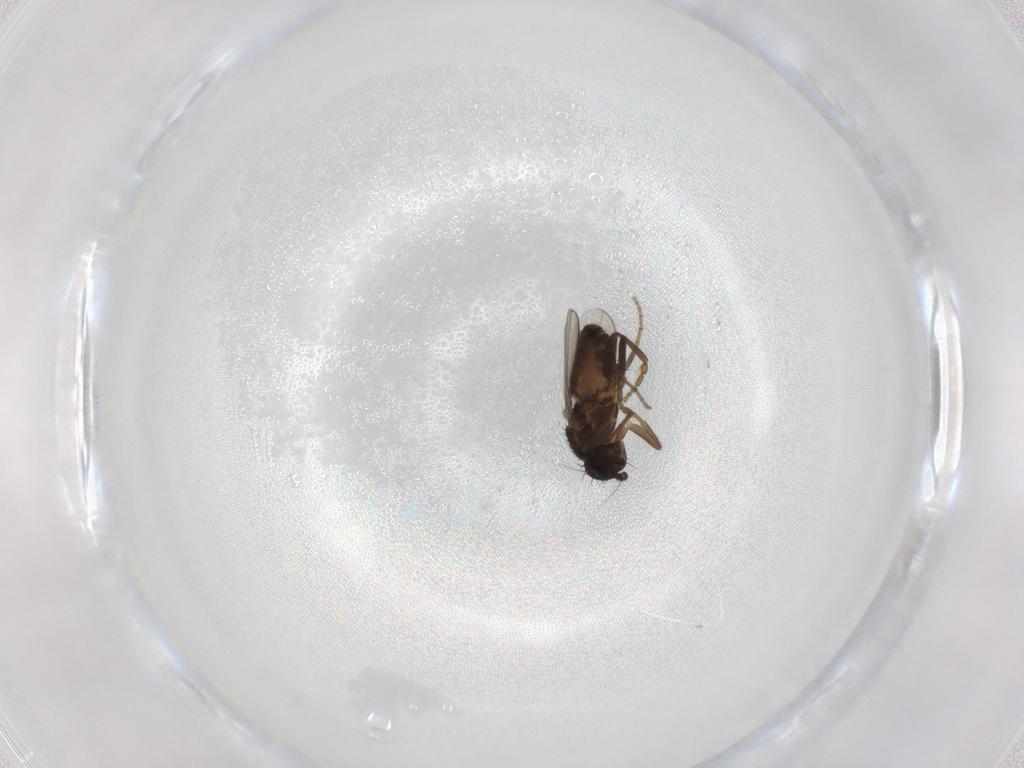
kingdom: Animalia
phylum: Arthropoda
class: Insecta
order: Diptera
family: Sphaeroceridae
